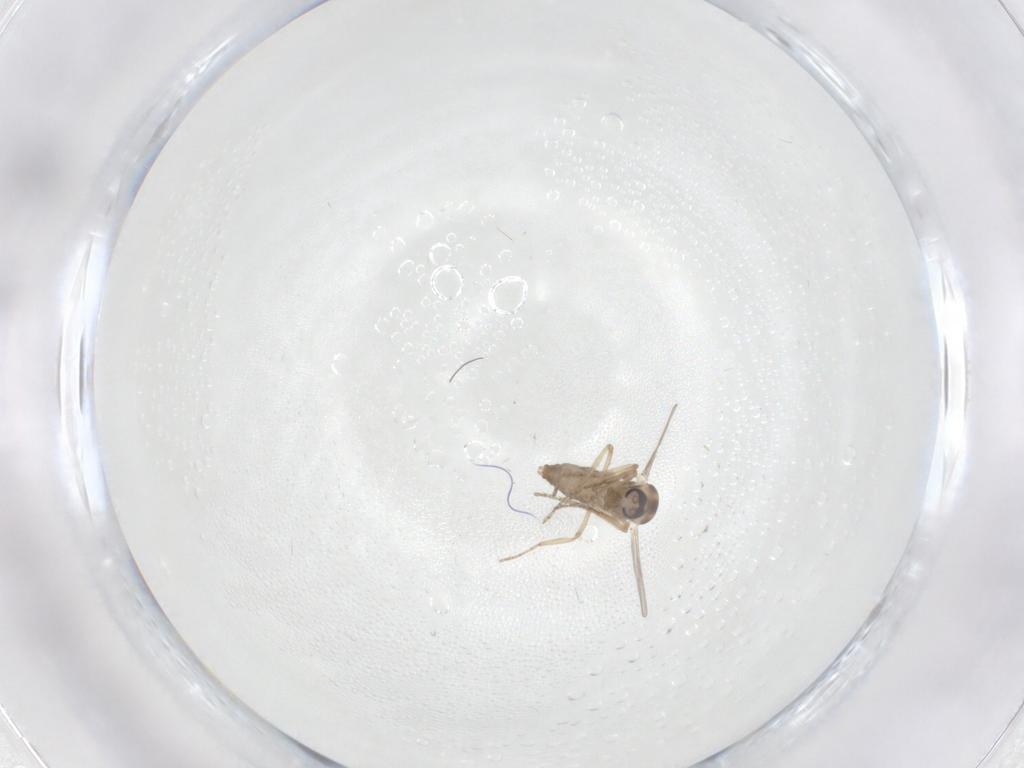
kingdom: Animalia
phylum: Arthropoda
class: Insecta
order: Diptera
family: Ceratopogonidae
